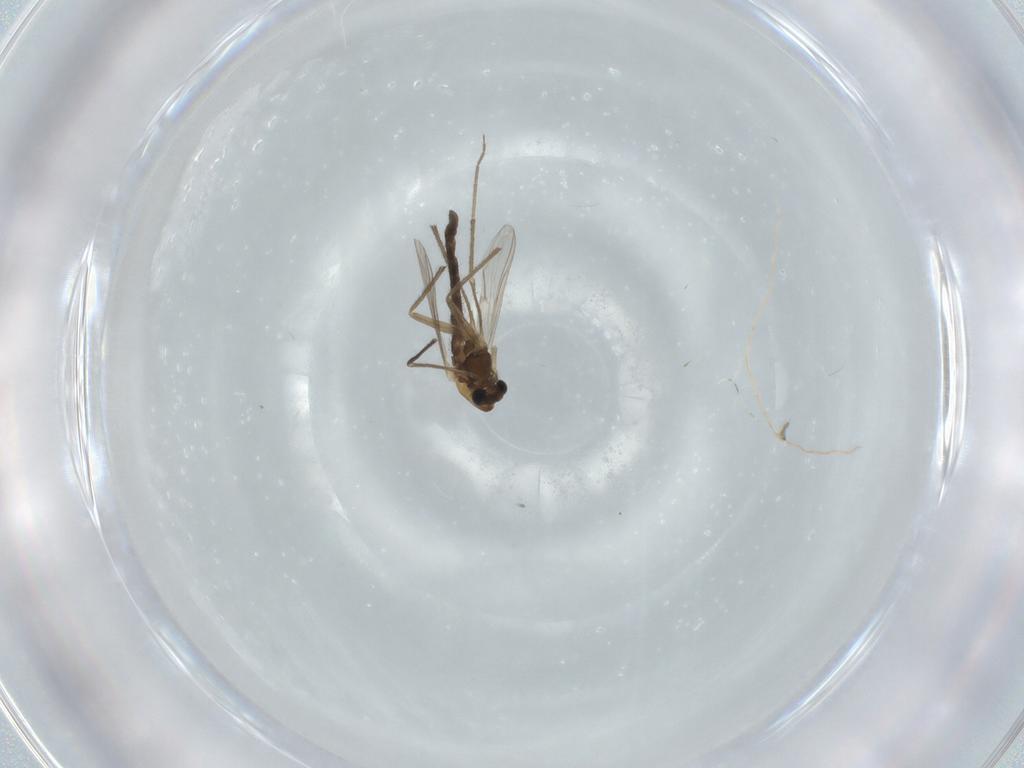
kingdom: Animalia
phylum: Arthropoda
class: Insecta
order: Diptera
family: Chironomidae
